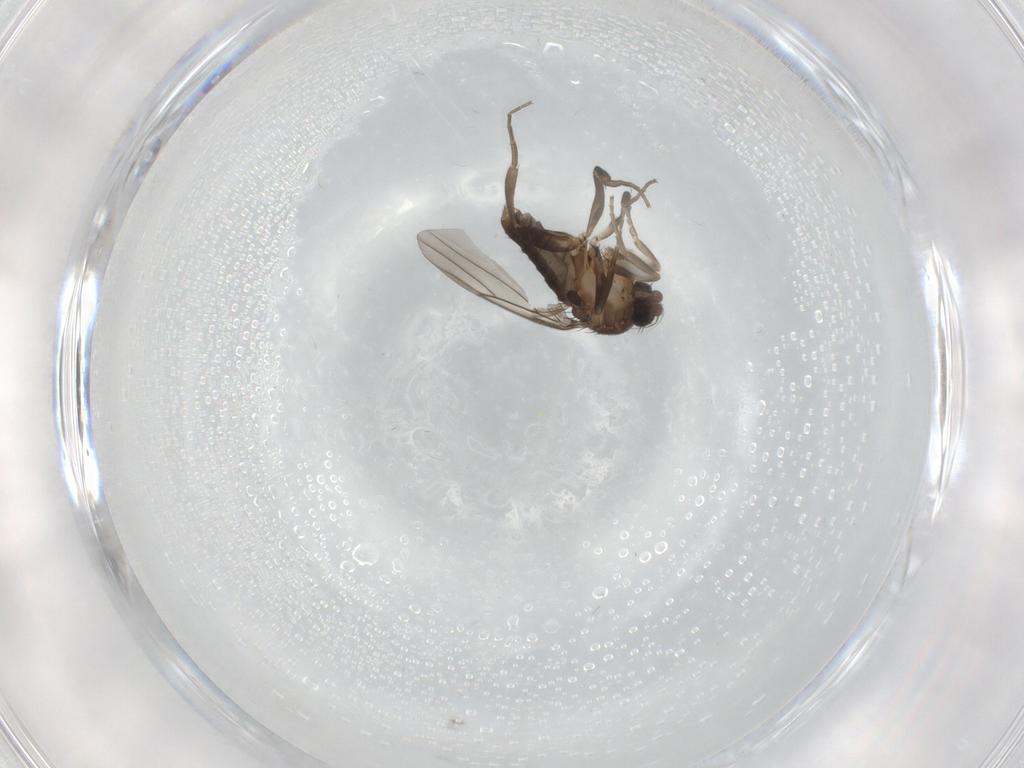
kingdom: Animalia
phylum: Arthropoda
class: Insecta
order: Diptera
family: Phoridae
